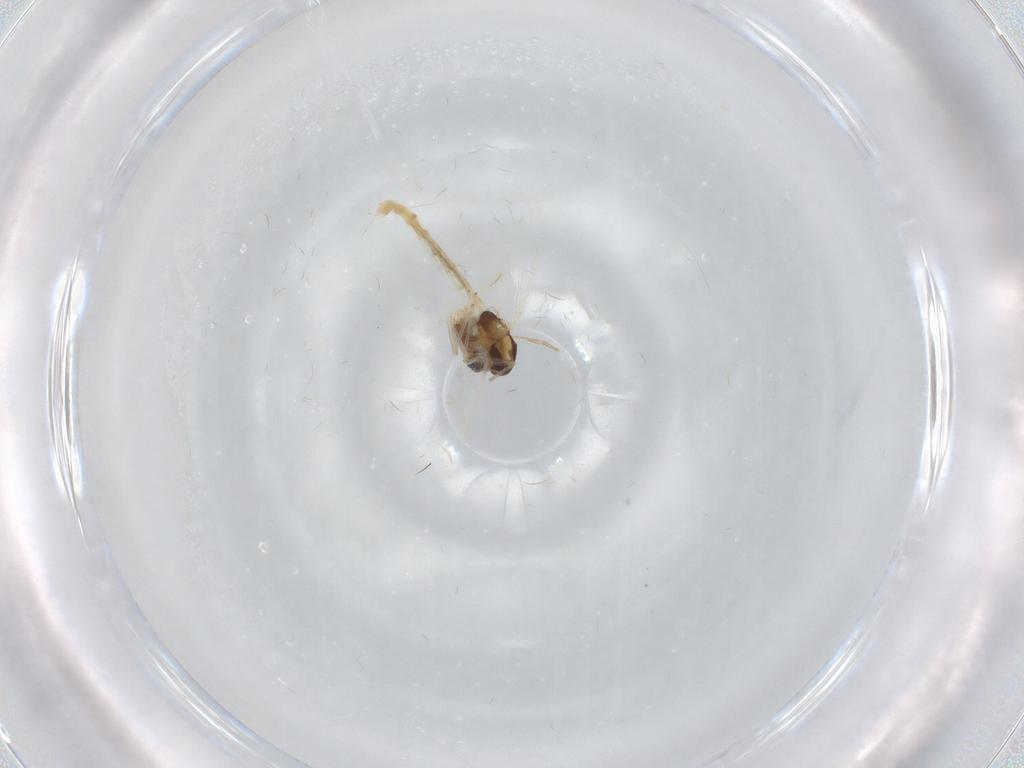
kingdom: Animalia
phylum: Arthropoda
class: Insecta
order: Diptera
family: Chironomidae
